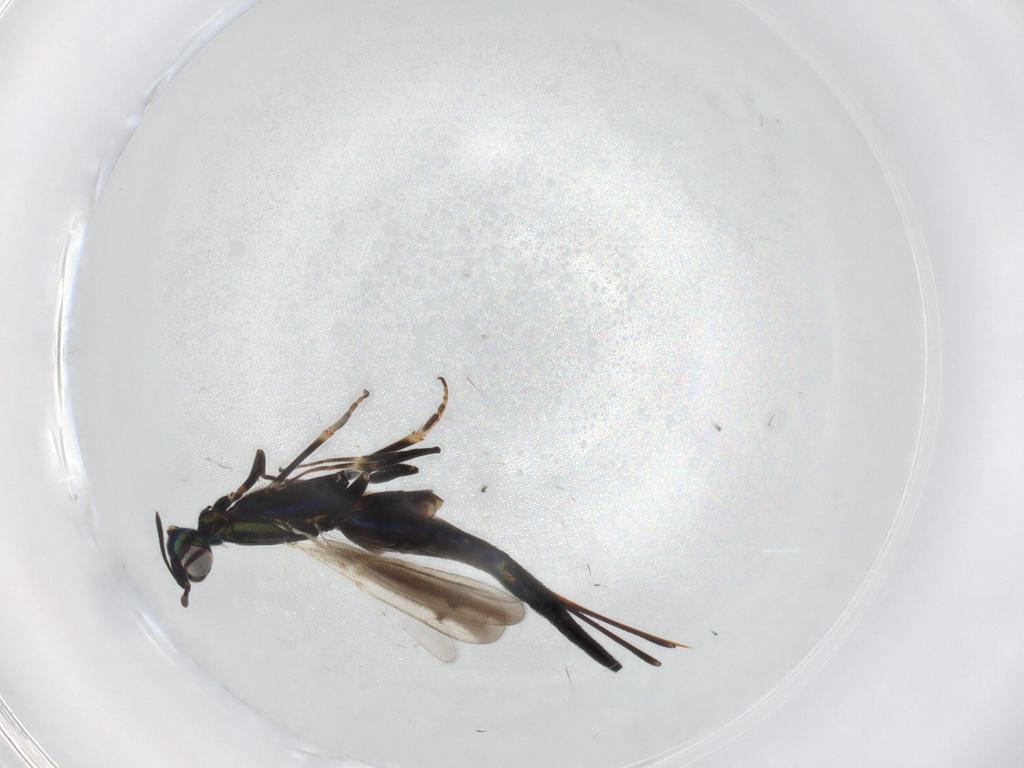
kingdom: Animalia
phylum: Arthropoda
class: Insecta
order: Hymenoptera
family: Eupelmidae
